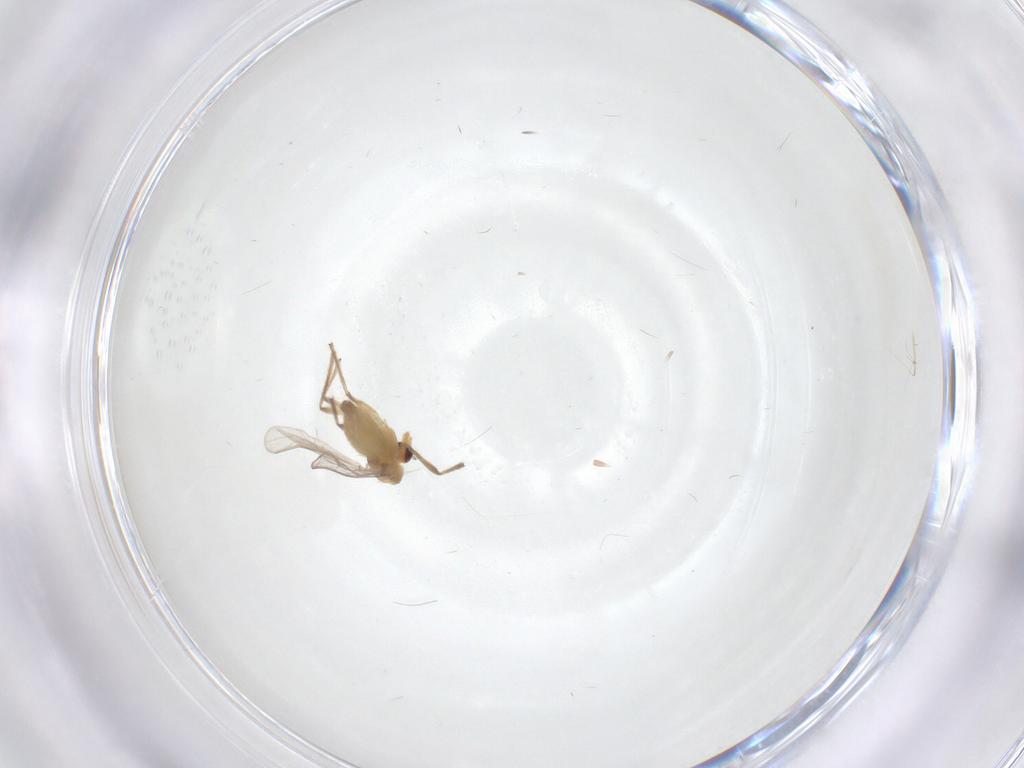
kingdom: Animalia
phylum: Arthropoda
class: Insecta
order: Diptera
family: Chironomidae
